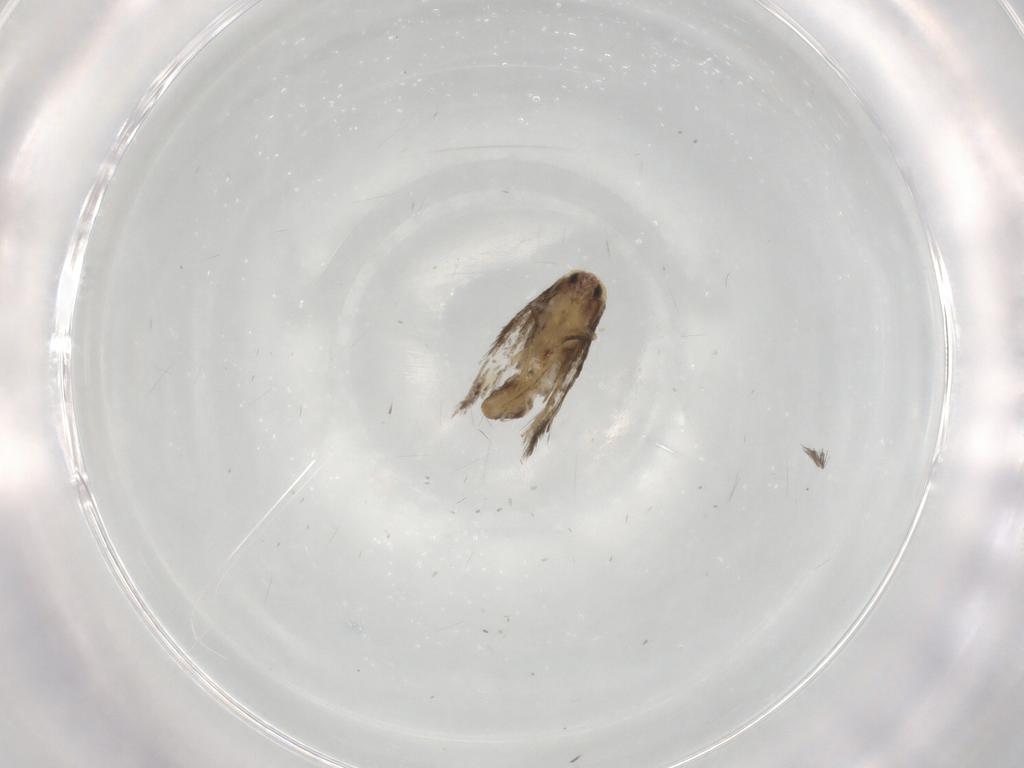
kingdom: Animalia
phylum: Arthropoda
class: Insecta
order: Lepidoptera
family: Nepticulidae
